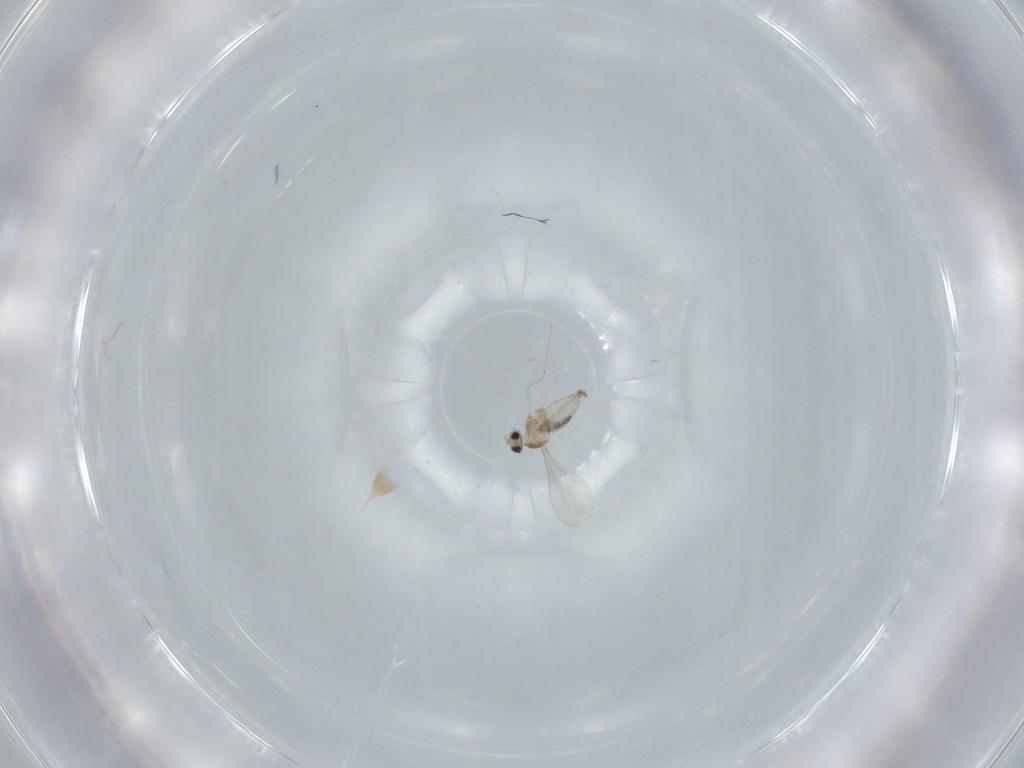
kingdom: Animalia
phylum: Arthropoda
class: Insecta
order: Diptera
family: Cecidomyiidae
